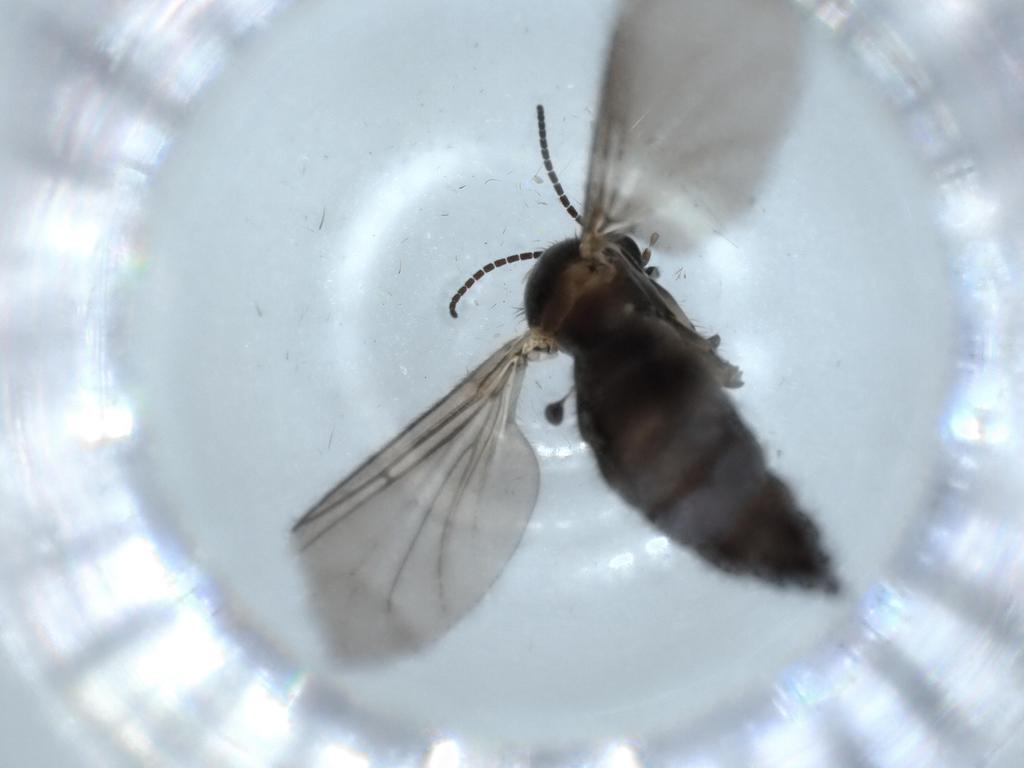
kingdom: Animalia
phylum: Arthropoda
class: Insecta
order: Diptera
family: Sciaridae
